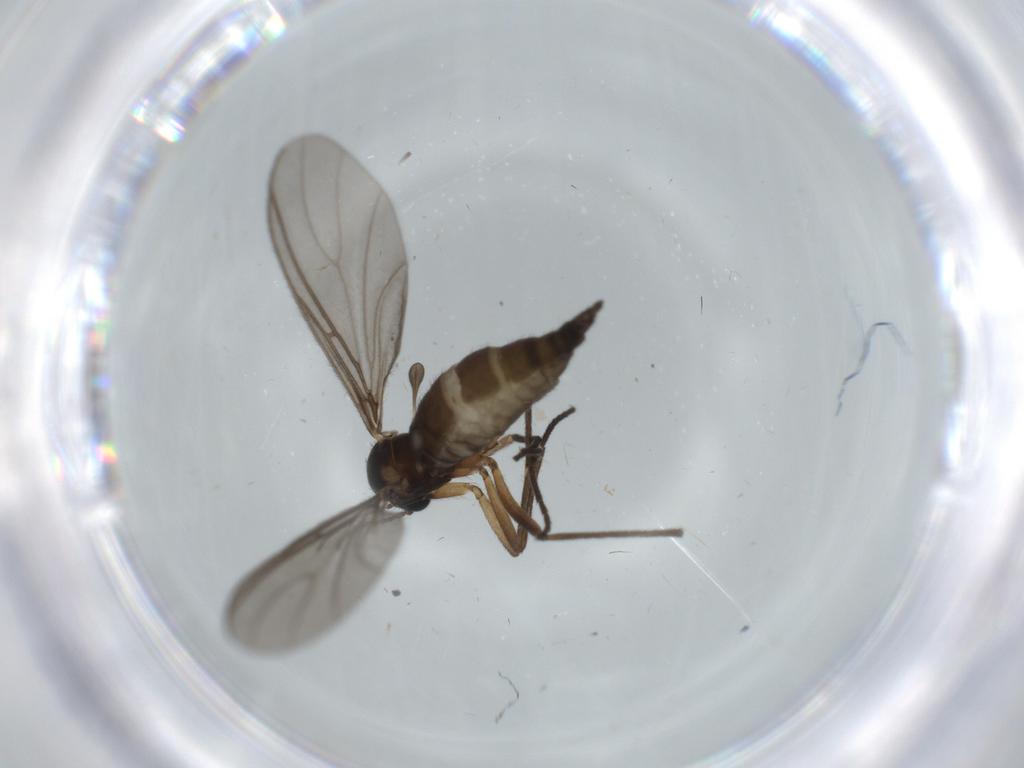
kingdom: Animalia
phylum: Arthropoda
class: Insecta
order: Diptera
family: Sciaridae
